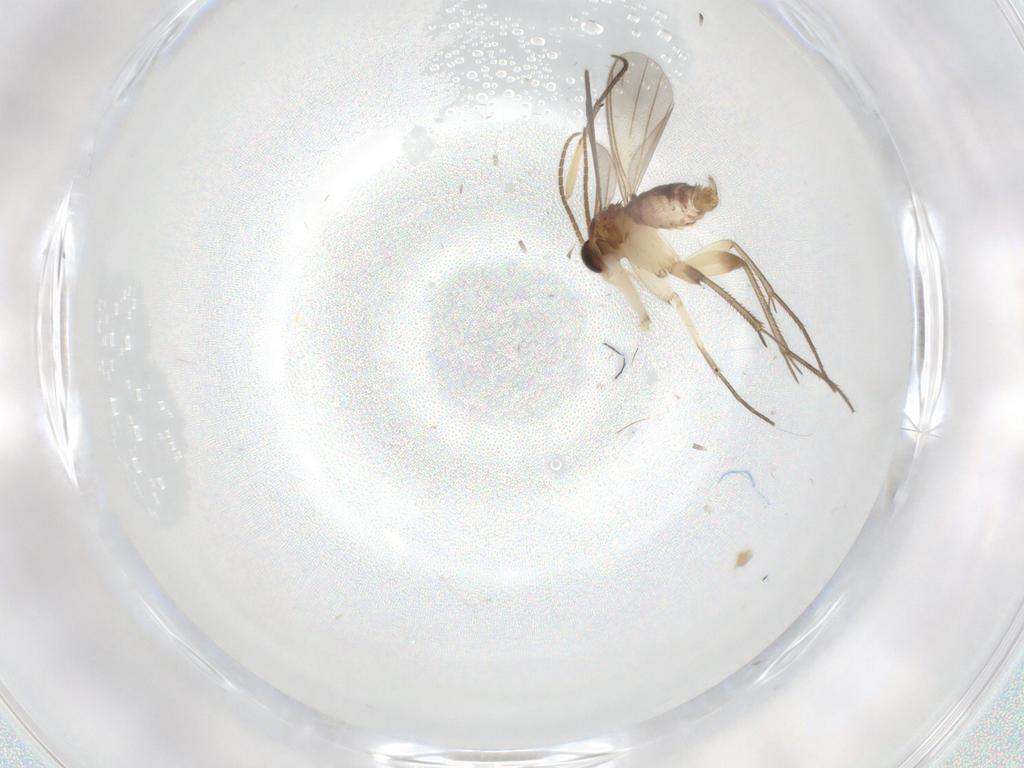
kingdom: Animalia
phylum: Arthropoda
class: Insecta
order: Diptera
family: Mycetophilidae
